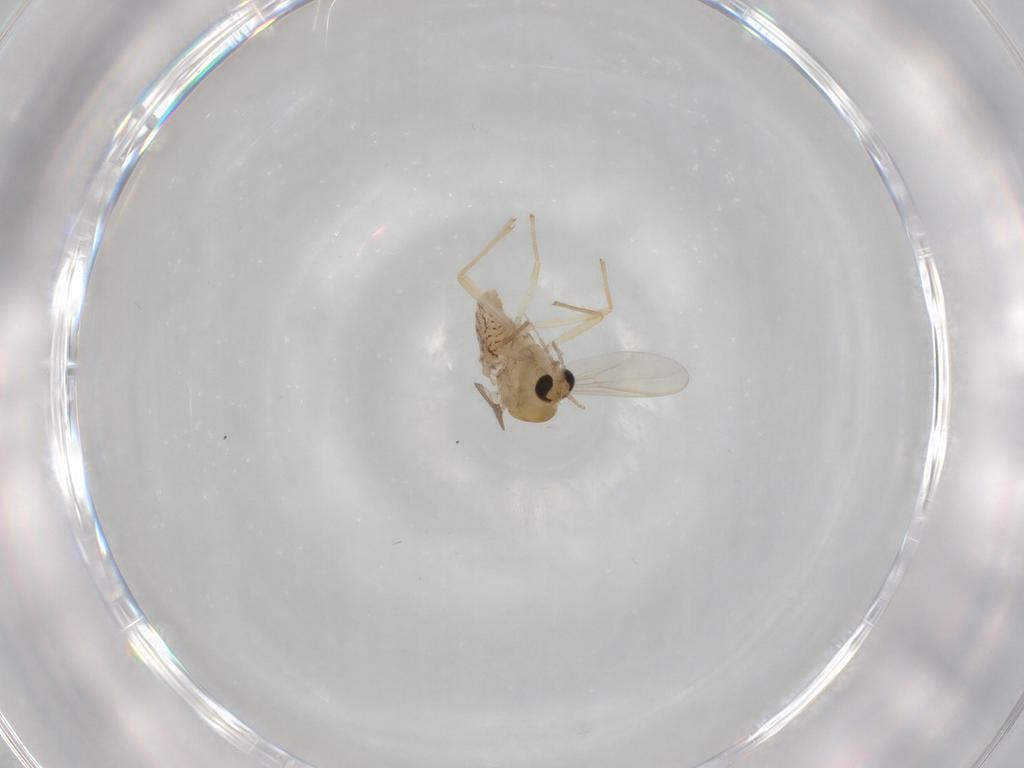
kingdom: Animalia
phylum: Arthropoda
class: Insecta
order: Diptera
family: Chironomidae
